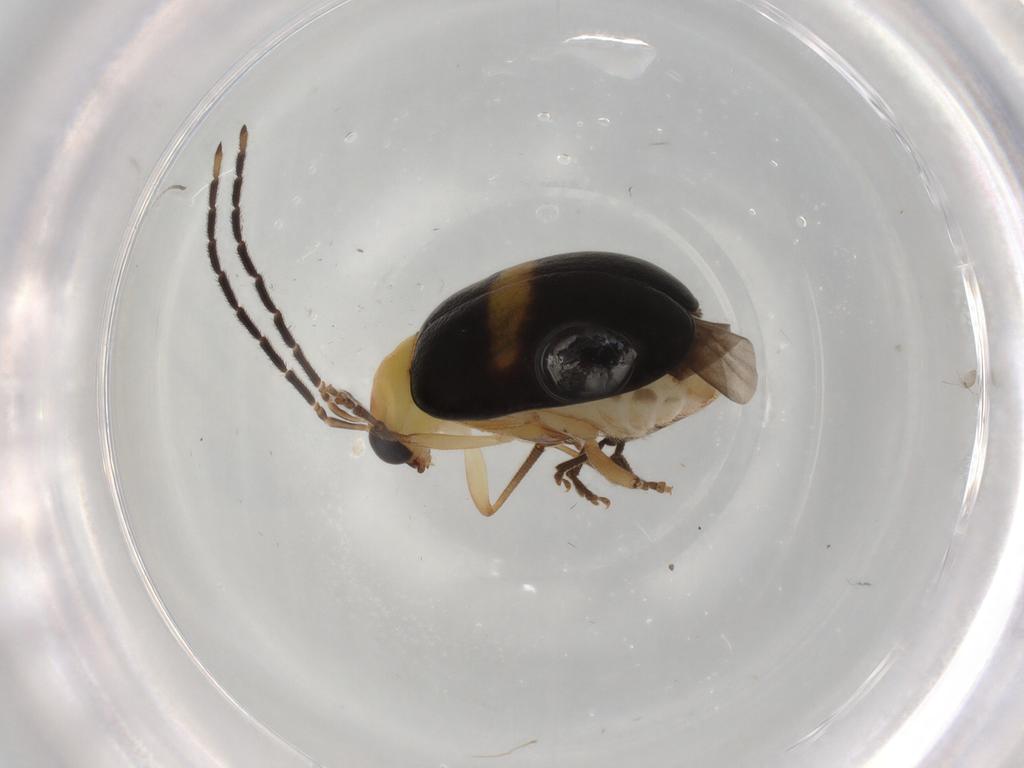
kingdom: Animalia
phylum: Arthropoda
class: Insecta
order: Coleoptera
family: Chrysomelidae
